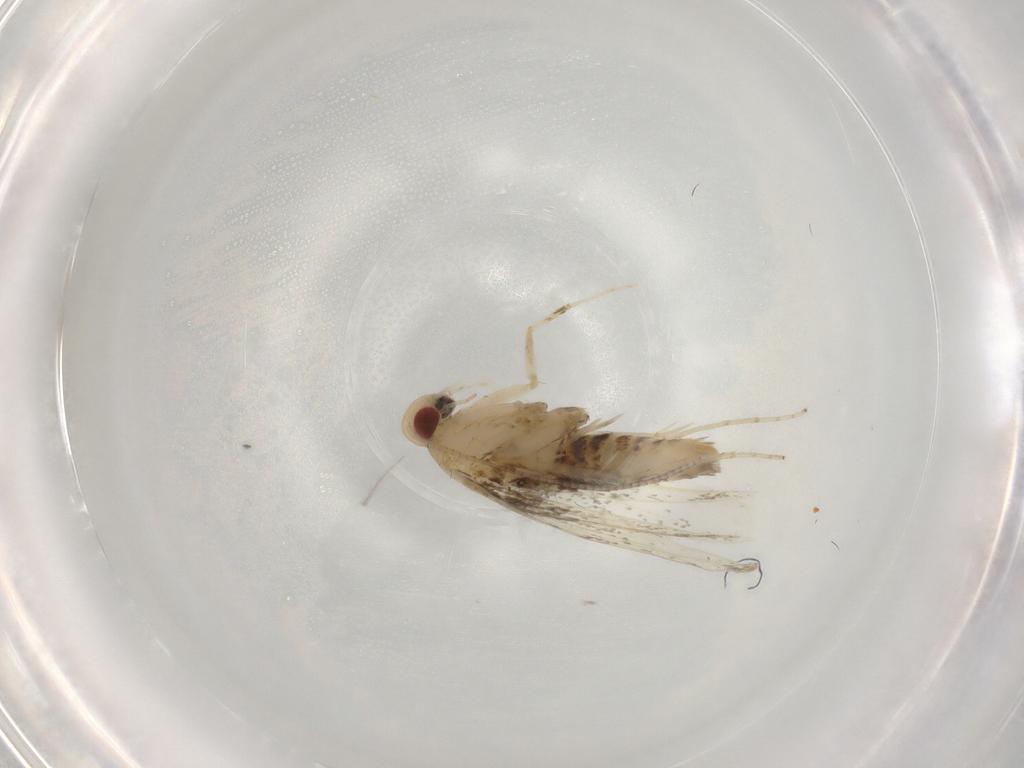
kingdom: Animalia
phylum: Arthropoda
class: Insecta
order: Lepidoptera
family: Gracillariidae
